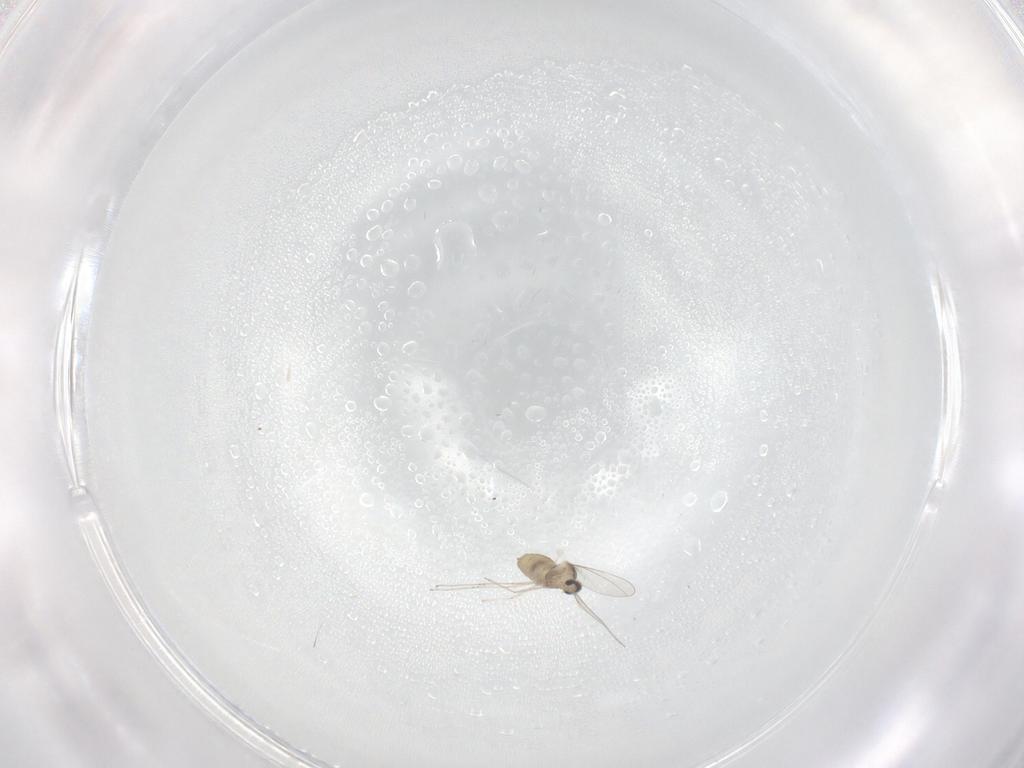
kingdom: Animalia
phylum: Arthropoda
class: Insecta
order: Diptera
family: Cecidomyiidae
